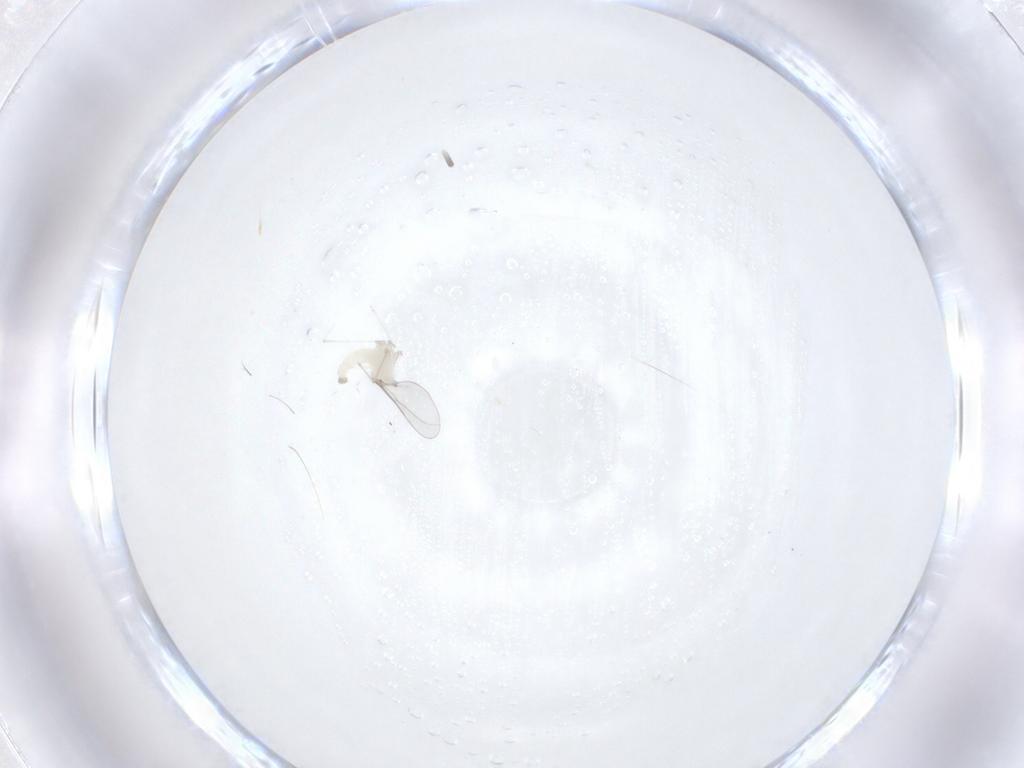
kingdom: Animalia
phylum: Arthropoda
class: Insecta
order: Diptera
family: Cecidomyiidae
